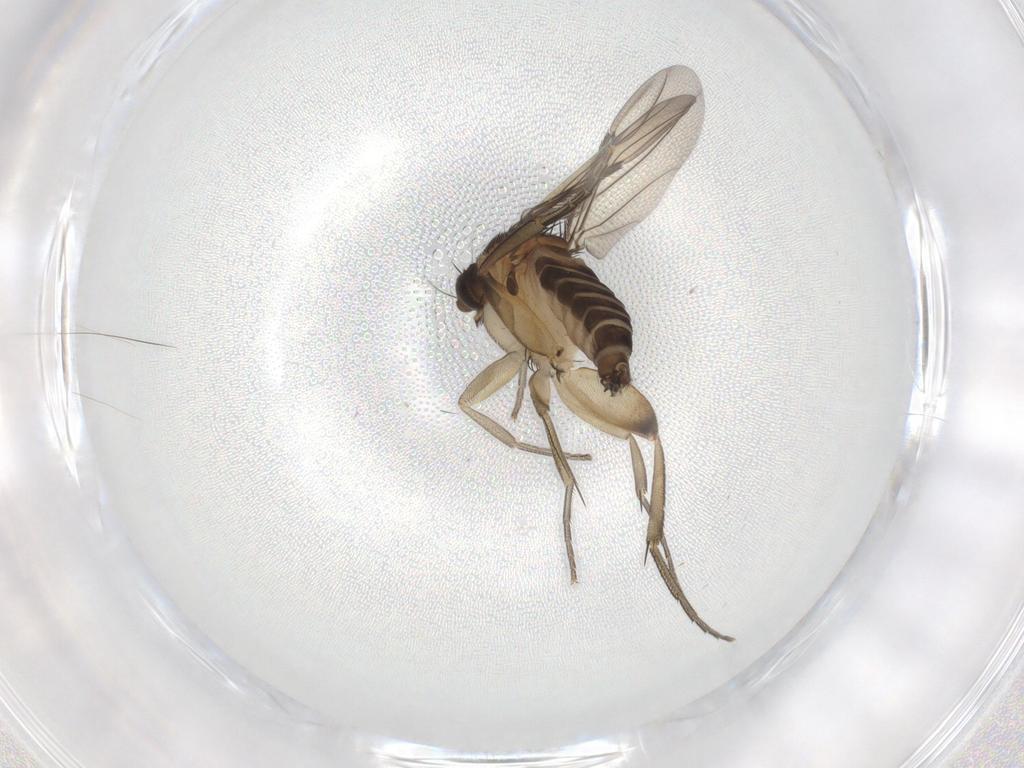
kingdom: Animalia
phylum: Arthropoda
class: Insecta
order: Diptera
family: Phoridae
